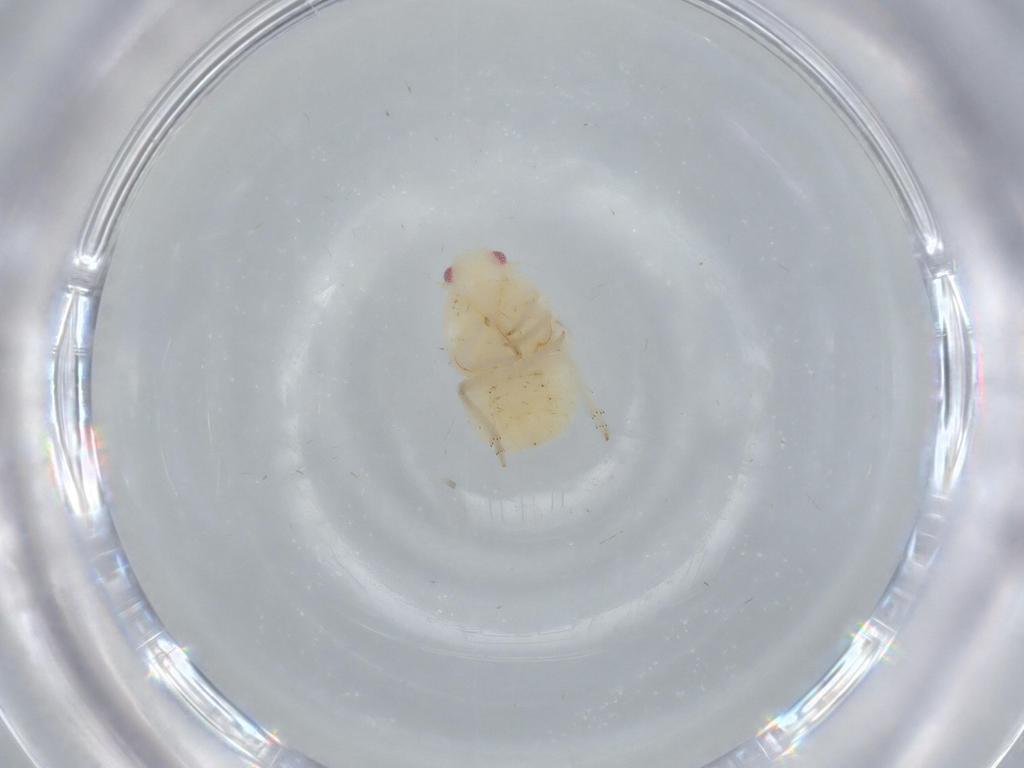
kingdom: Animalia
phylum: Arthropoda
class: Insecta
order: Hemiptera
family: Flatidae
